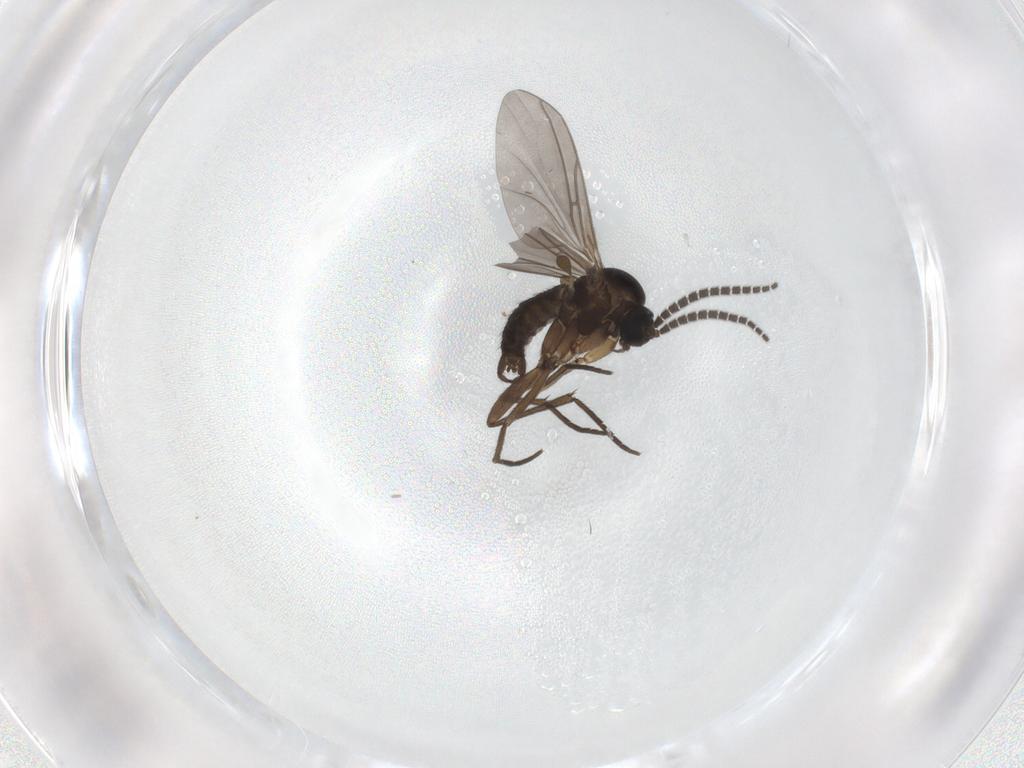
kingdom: Animalia
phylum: Arthropoda
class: Insecta
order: Diptera
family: Sciaridae
